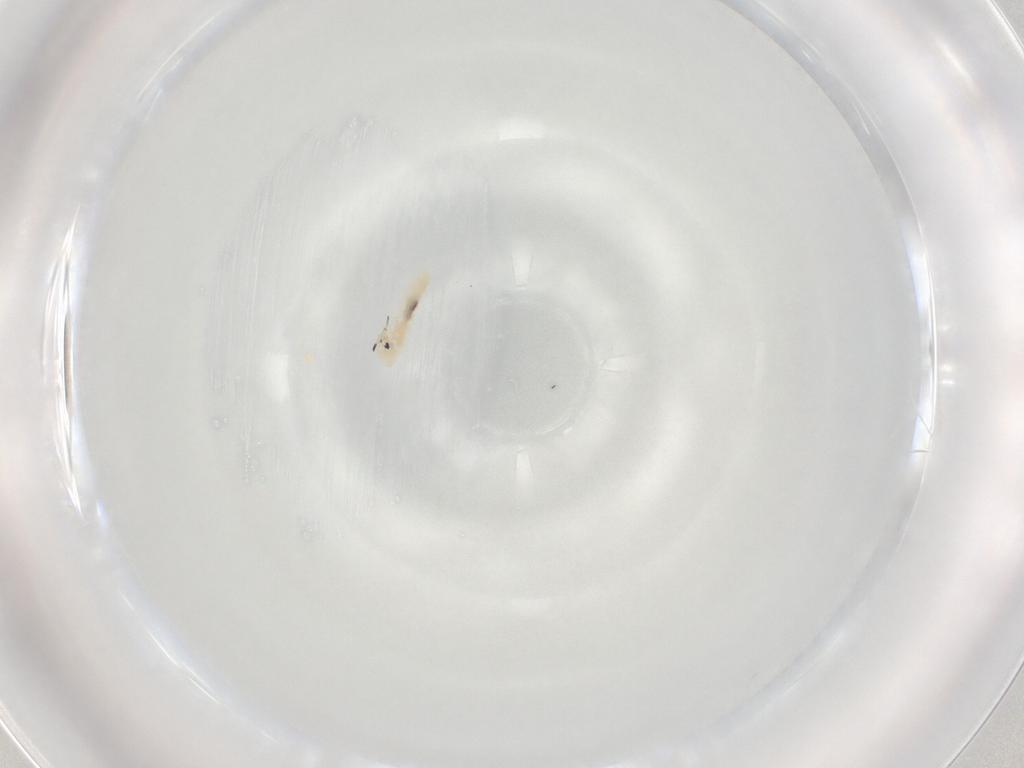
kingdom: Animalia
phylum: Arthropoda
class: Collembola
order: Entomobryomorpha
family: Entomobryidae
